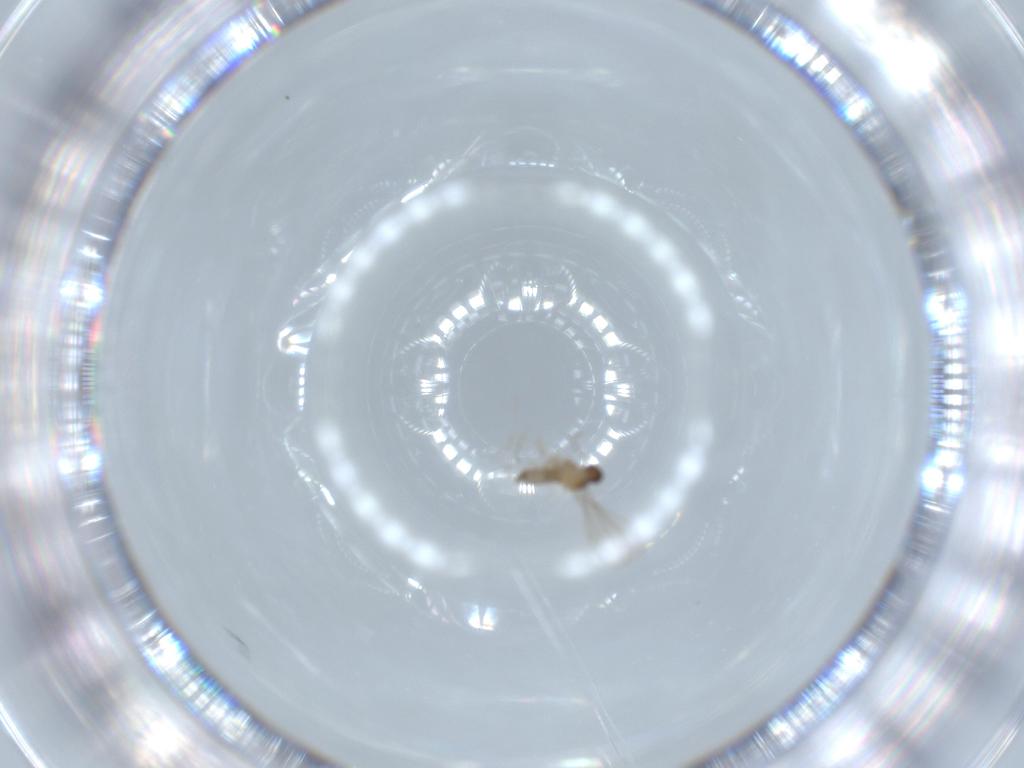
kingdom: Animalia
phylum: Arthropoda
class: Insecta
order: Diptera
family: Cecidomyiidae
